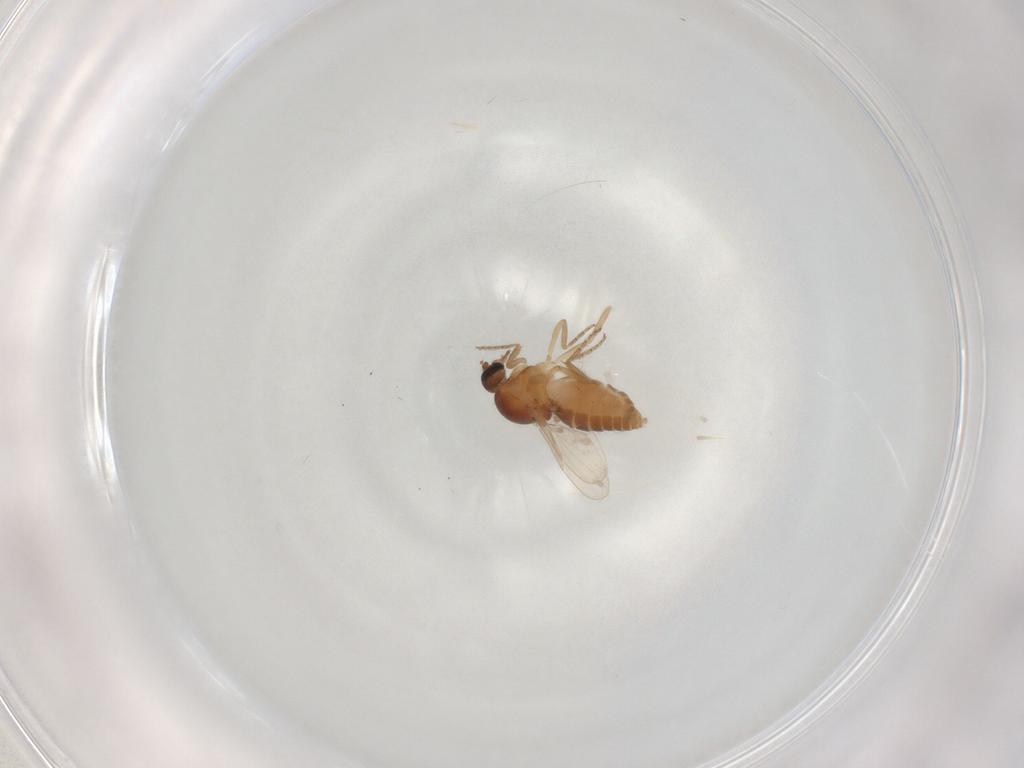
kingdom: Animalia
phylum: Arthropoda
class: Insecta
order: Diptera
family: Ceratopogonidae
